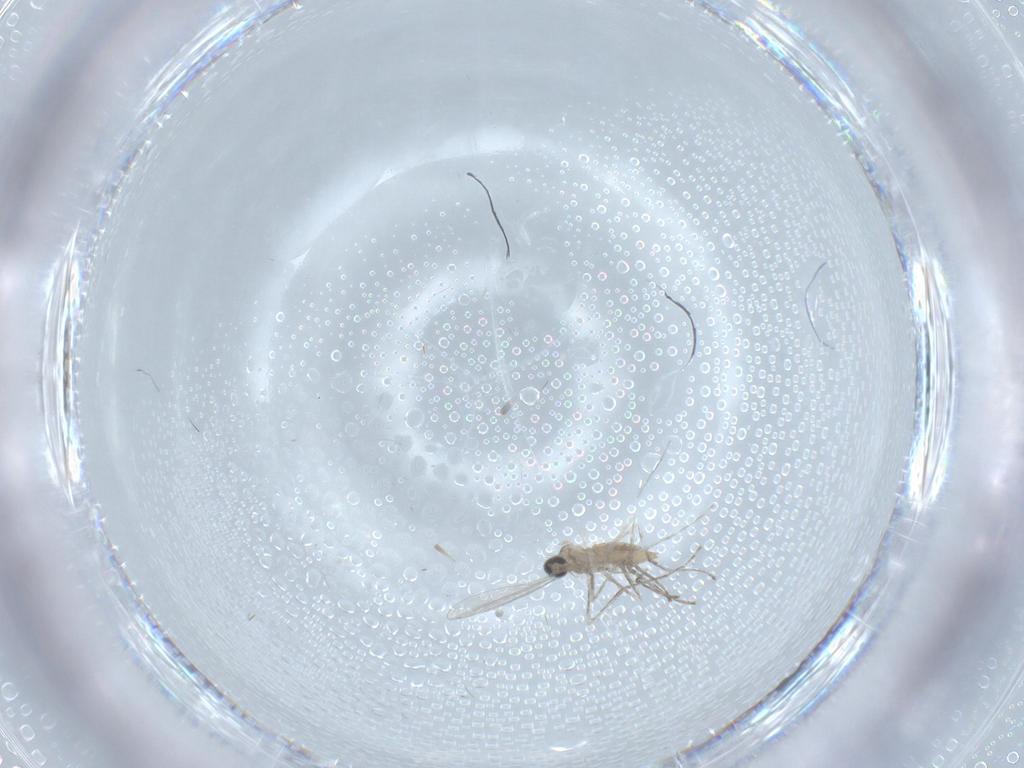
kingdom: Animalia
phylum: Arthropoda
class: Insecta
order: Diptera
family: Cecidomyiidae
